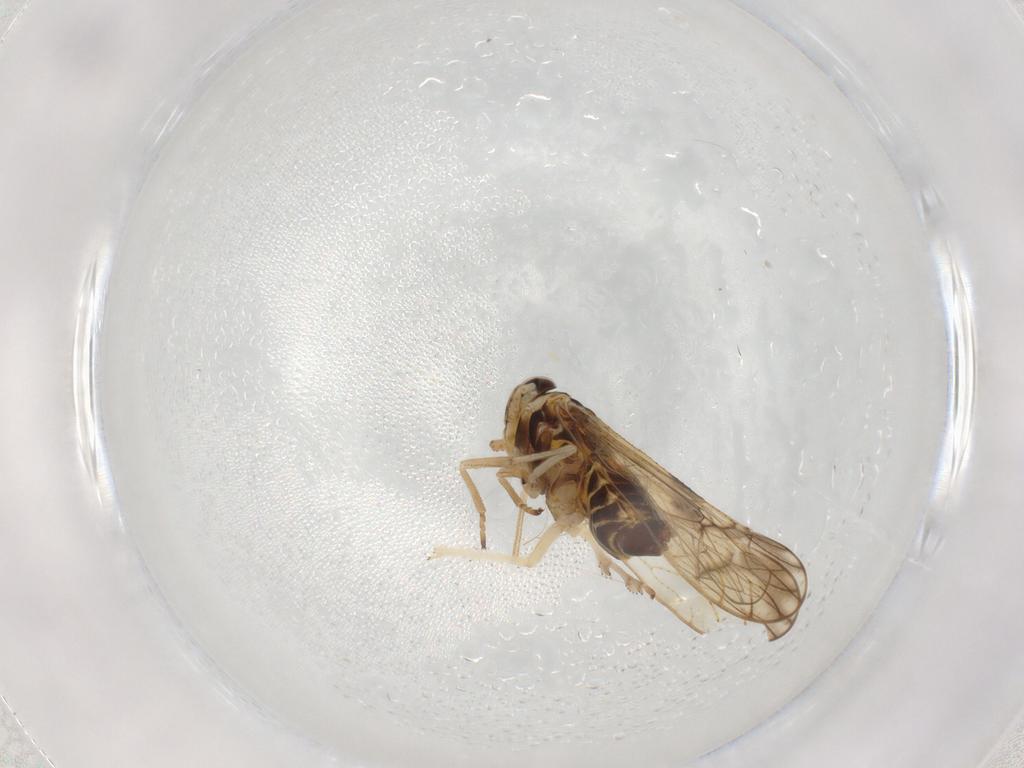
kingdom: Animalia
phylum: Arthropoda
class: Insecta
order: Hemiptera
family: Delphacidae
